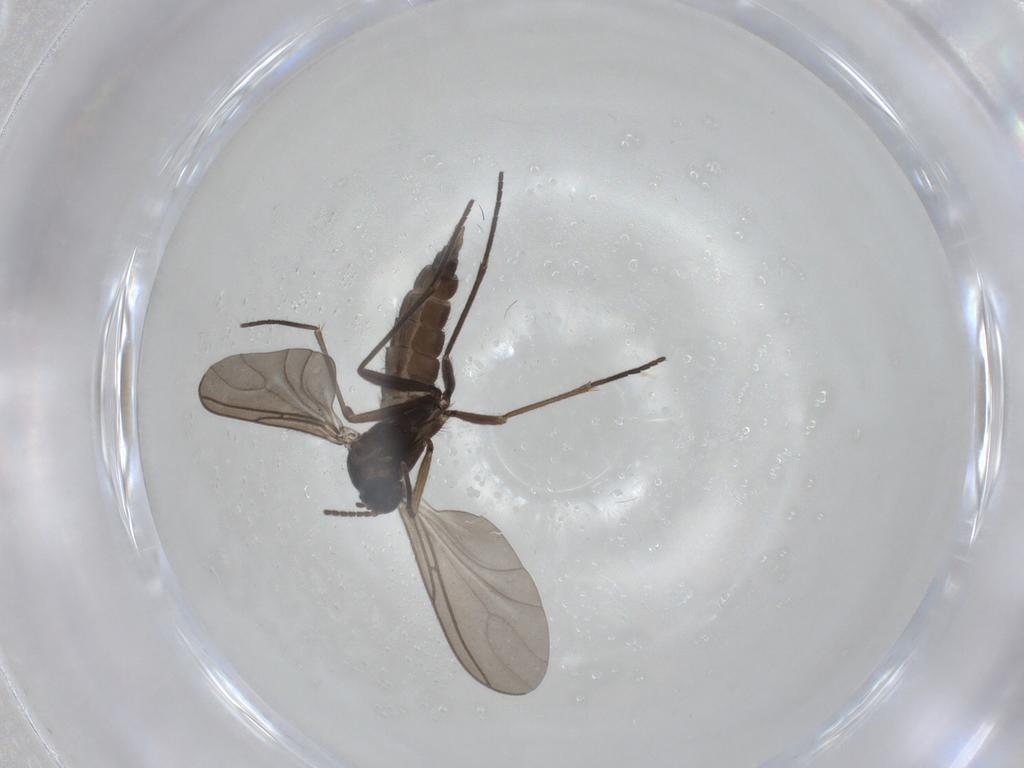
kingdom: Animalia
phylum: Arthropoda
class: Insecta
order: Diptera
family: Sciaridae
